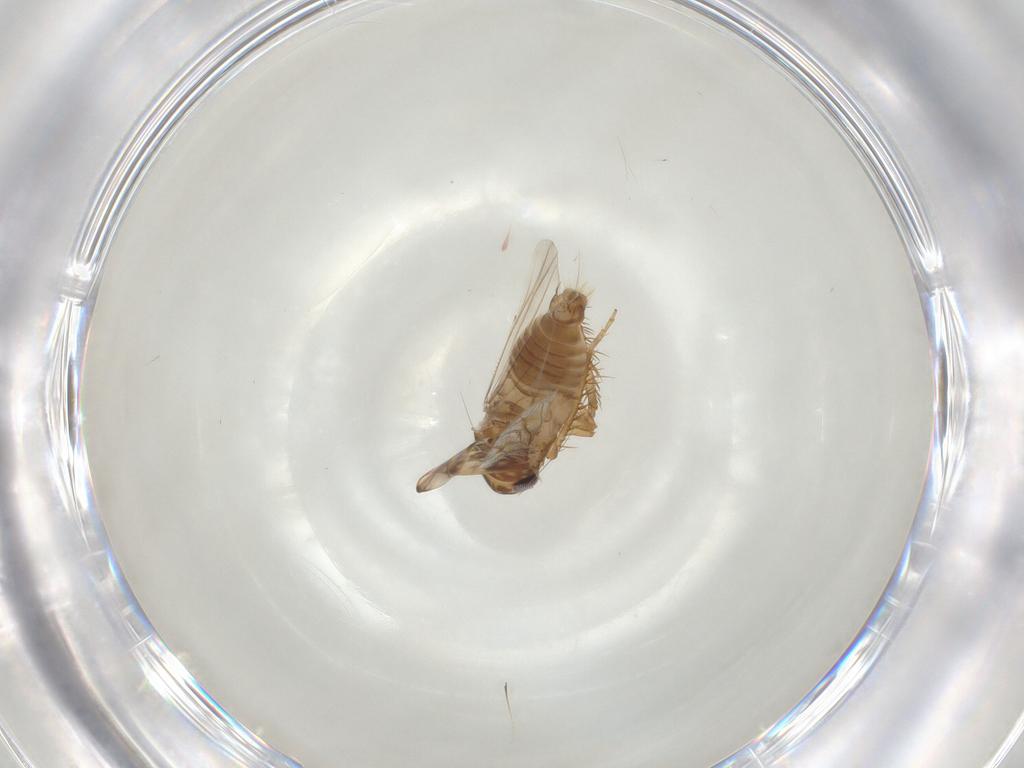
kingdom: Animalia
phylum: Arthropoda
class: Insecta
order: Hemiptera
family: Cicadellidae
